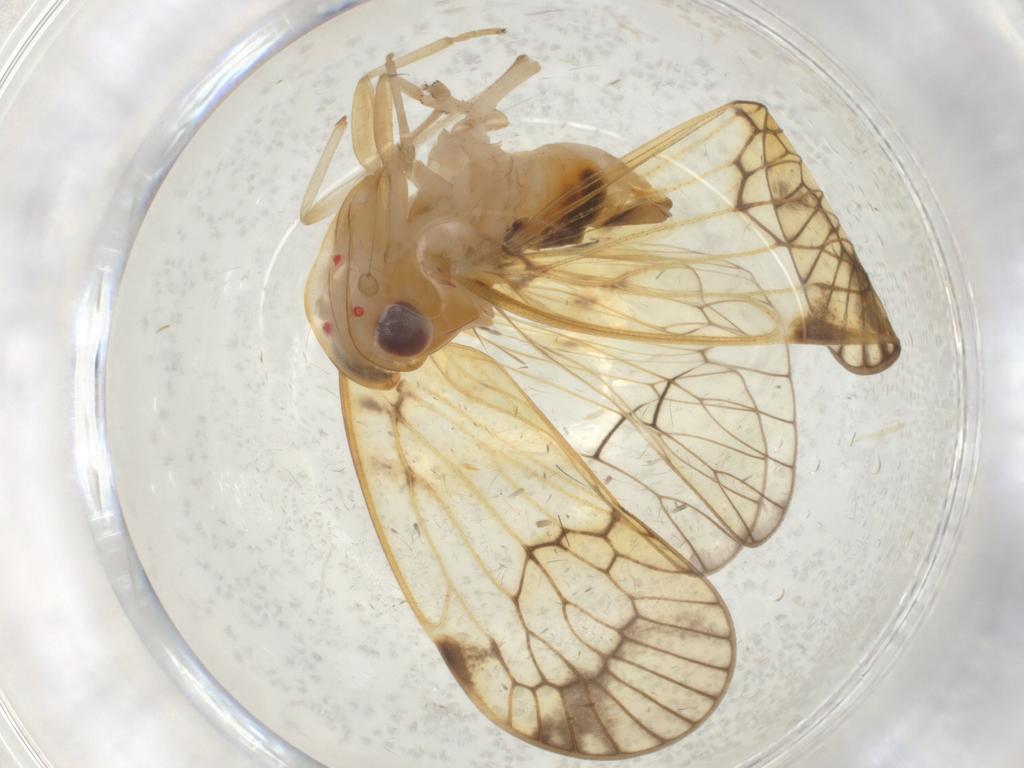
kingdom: Animalia
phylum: Arthropoda
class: Insecta
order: Hemiptera
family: Cixiidae
